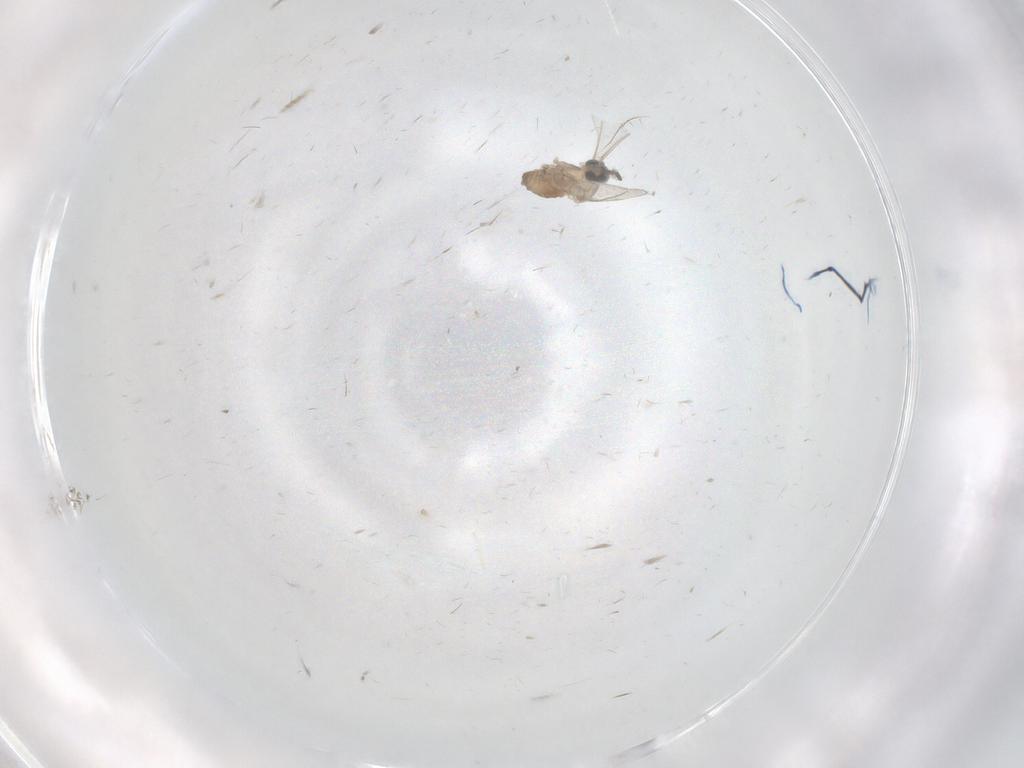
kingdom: Animalia
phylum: Arthropoda
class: Insecta
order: Diptera
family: Cecidomyiidae
